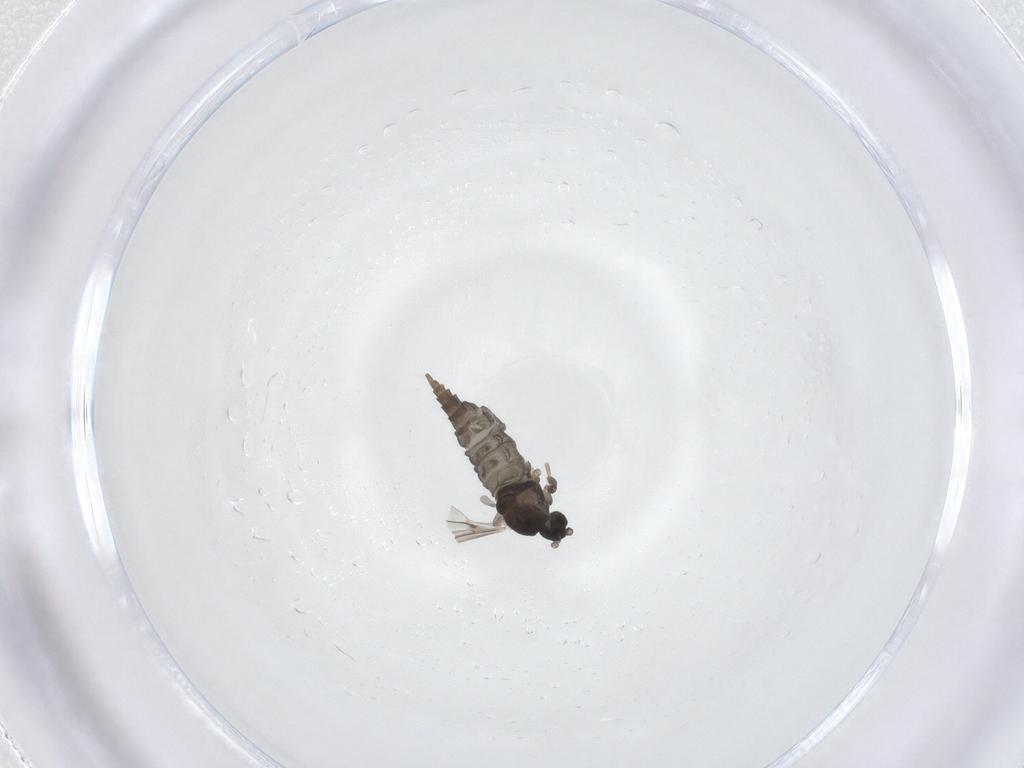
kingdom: Animalia
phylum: Arthropoda
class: Insecta
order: Diptera
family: Cecidomyiidae
